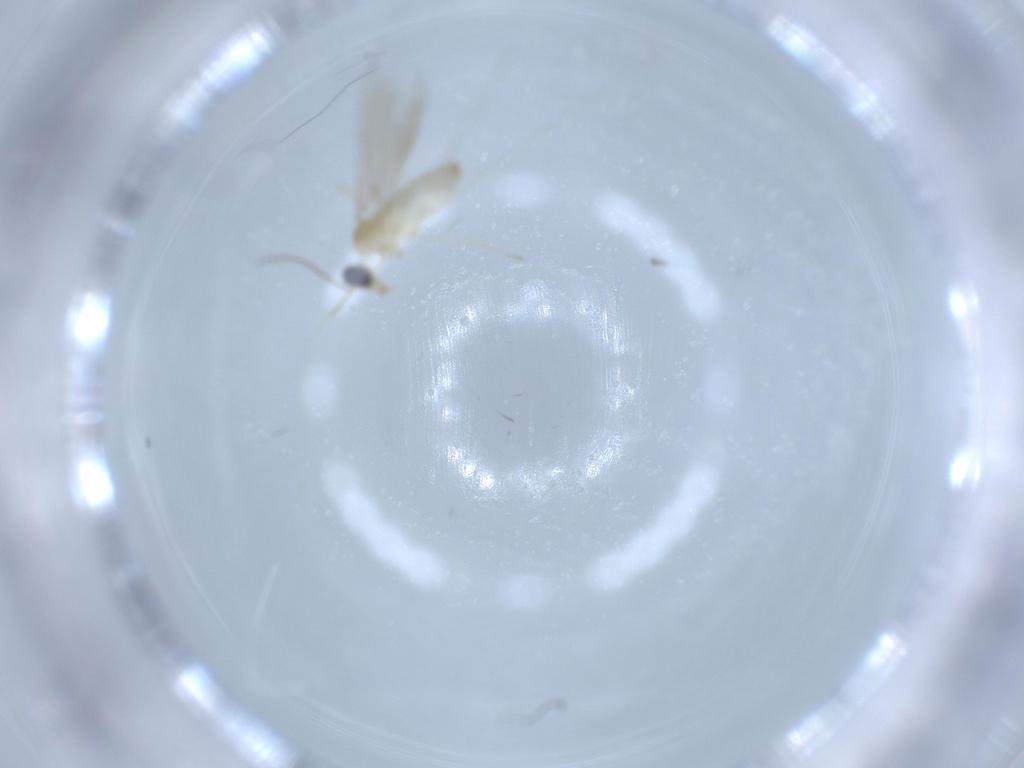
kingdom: Animalia
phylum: Arthropoda
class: Insecta
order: Diptera
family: Cecidomyiidae
